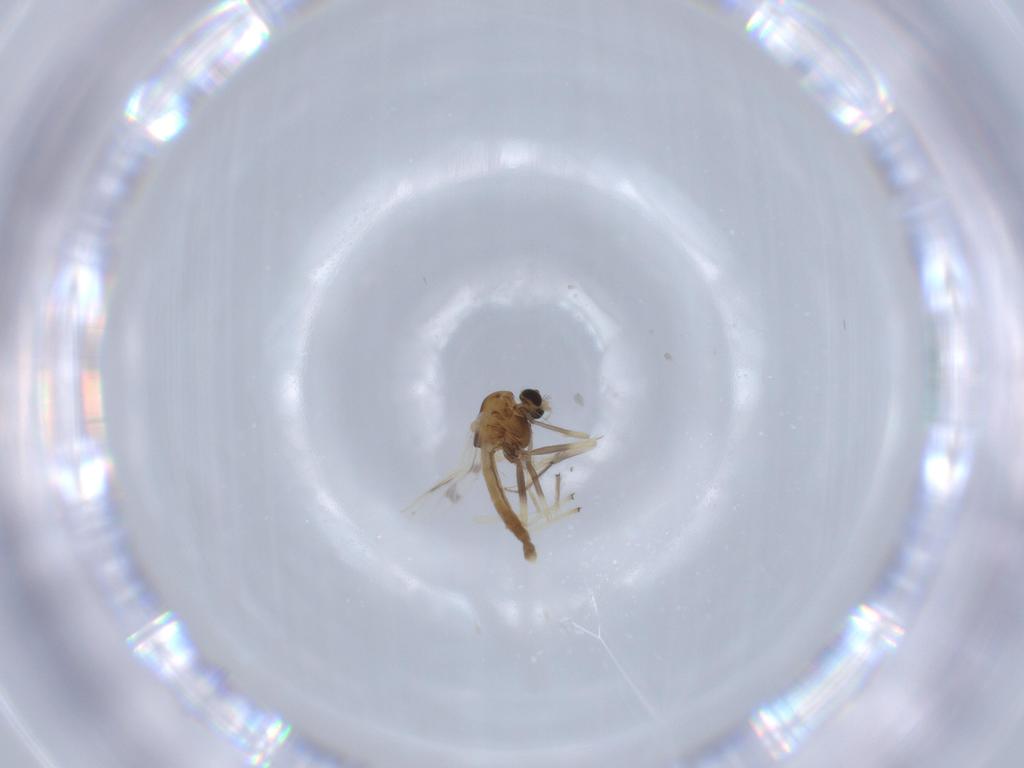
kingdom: Animalia
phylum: Arthropoda
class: Insecta
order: Diptera
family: Chironomidae
